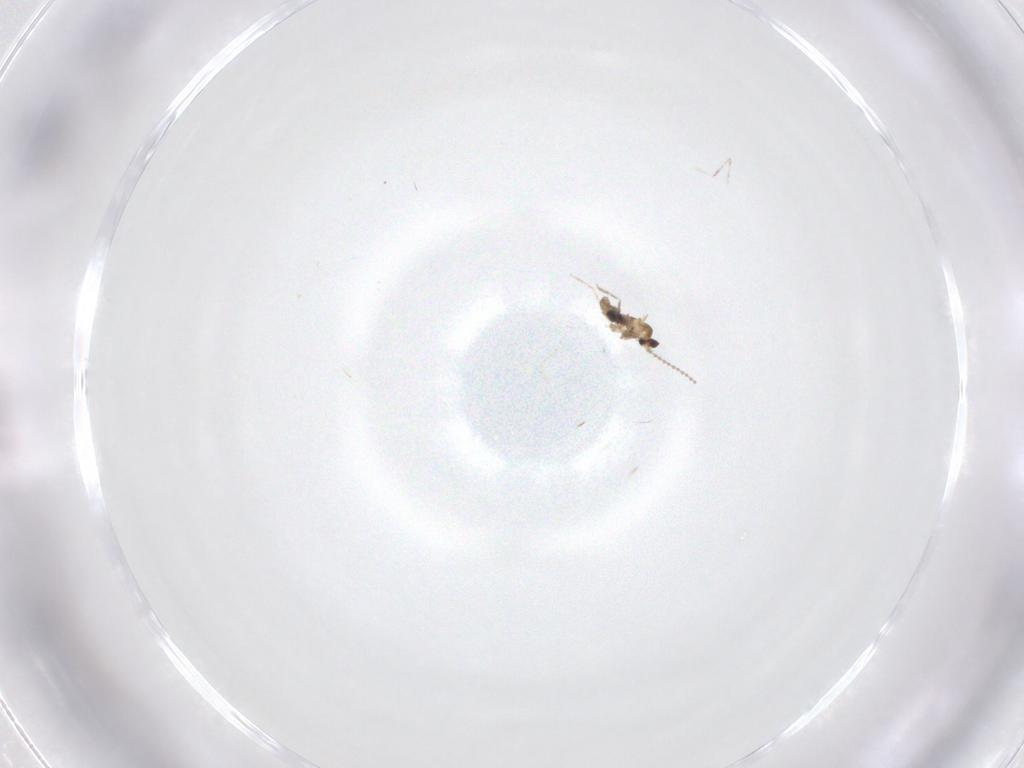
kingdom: Animalia
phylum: Arthropoda
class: Insecta
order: Diptera
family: Cecidomyiidae
